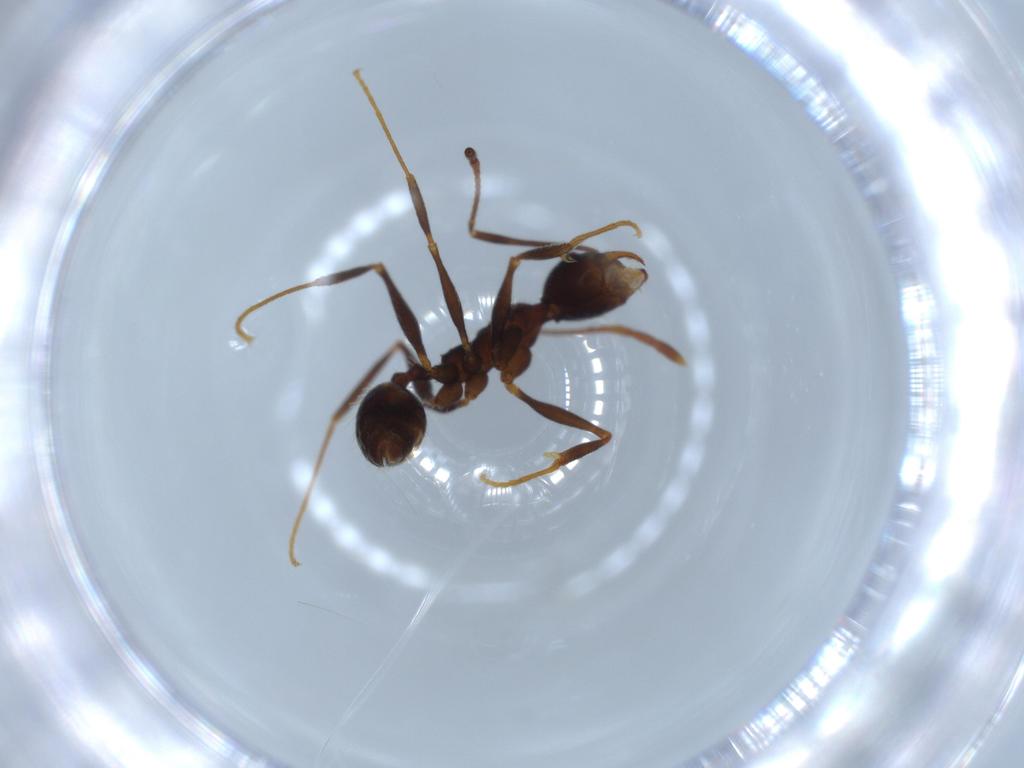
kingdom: Animalia
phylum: Arthropoda
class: Insecta
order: Hymenoptera
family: Formicidae
